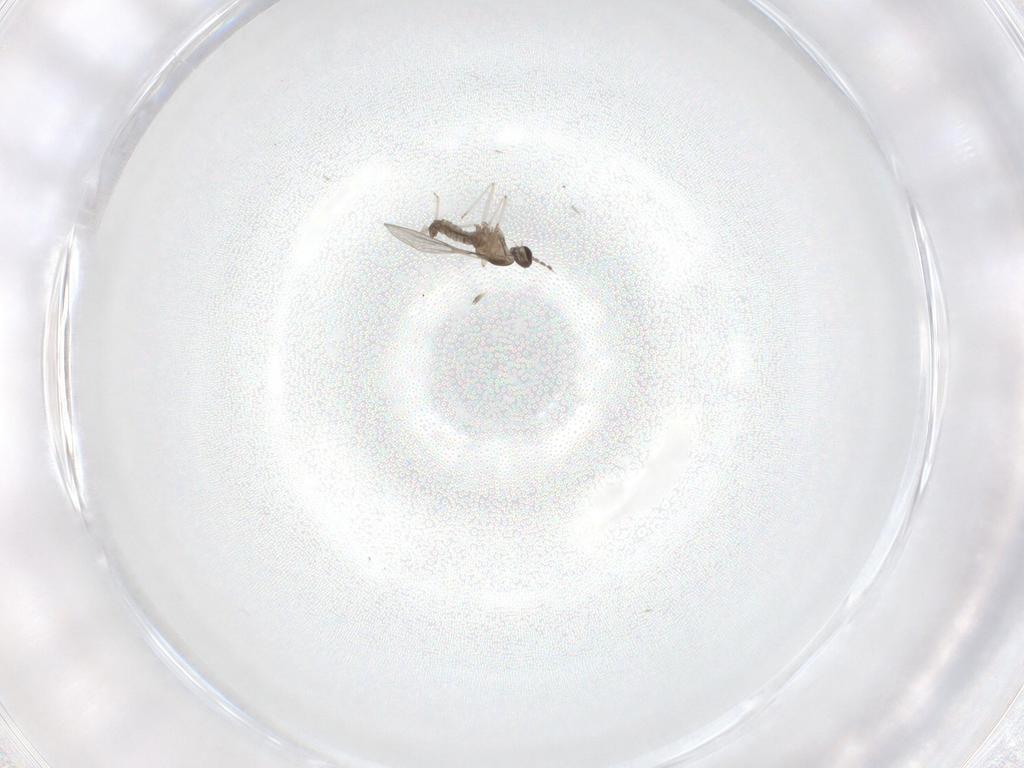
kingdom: Animalia
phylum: Arthropoda
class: Insecta
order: Diptera
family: Cecidomyiidae
